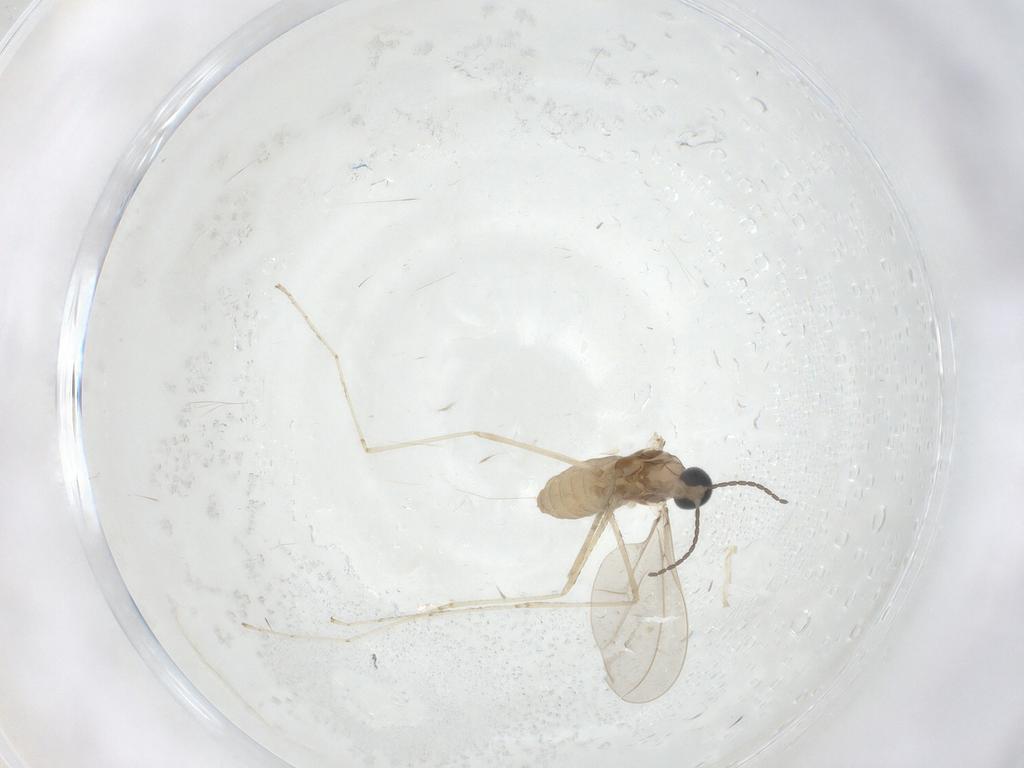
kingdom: Animalia
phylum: Arthropoda
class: Insecta
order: Diptera
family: Cecidomyiidae
